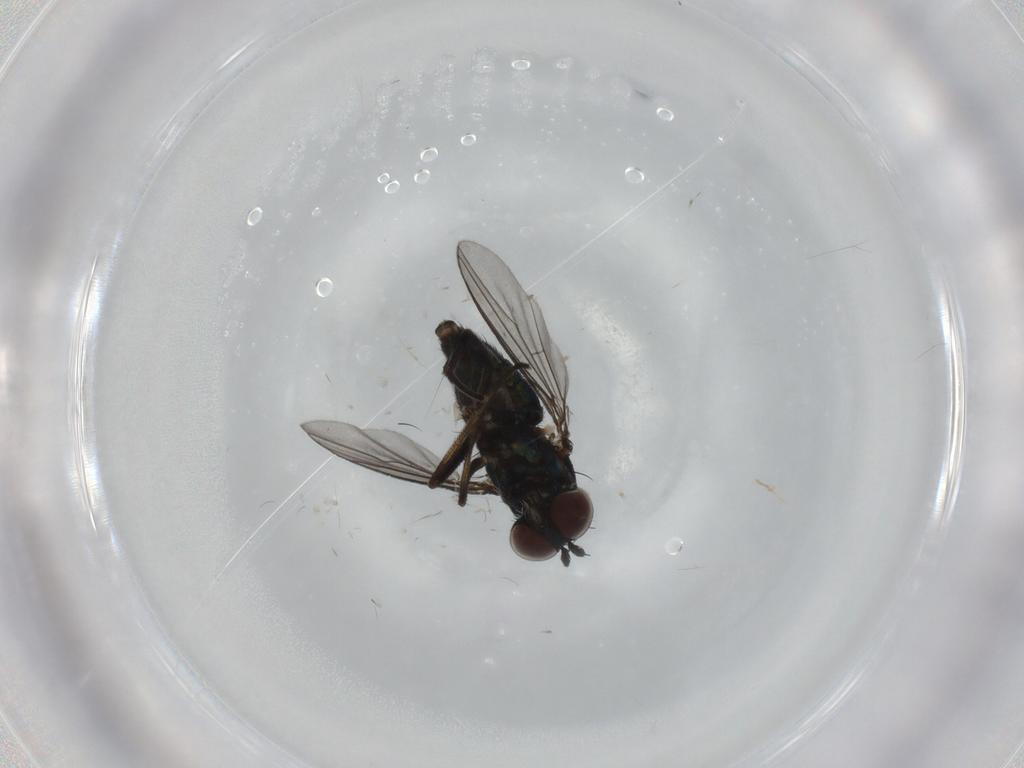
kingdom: Animalia
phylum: Arthropoda
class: Insecta
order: Diptera
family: Dolichopodidae
